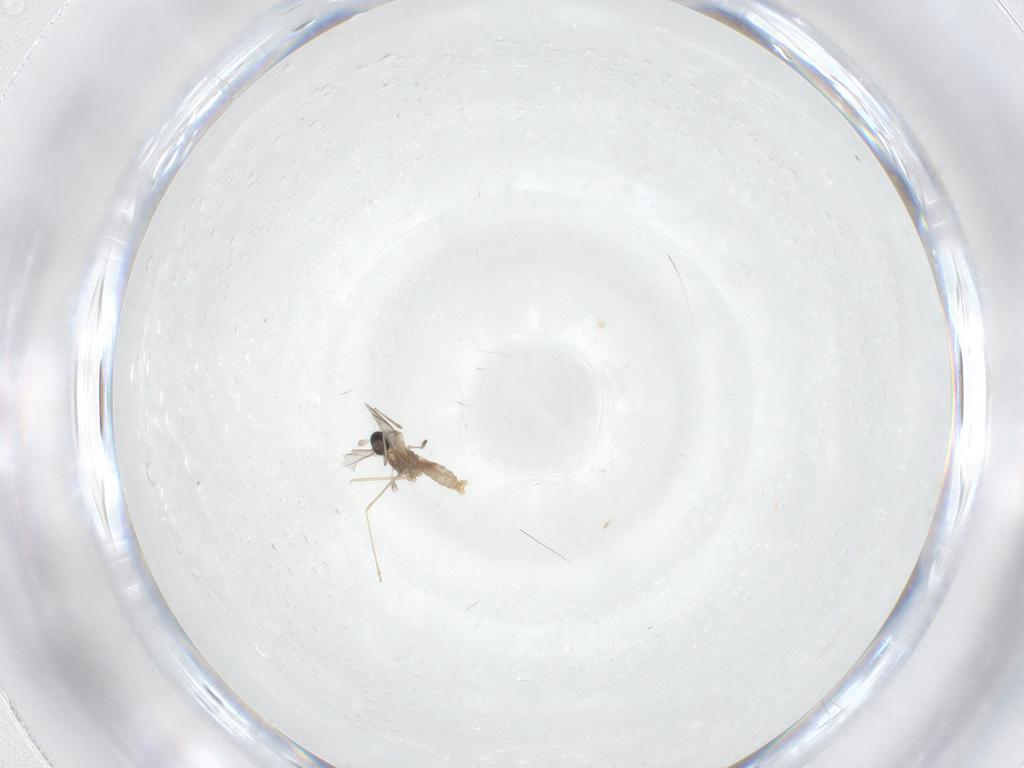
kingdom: Animalia
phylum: Arthropoda
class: Insecta
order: Diptera
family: Cecidomyiidae
